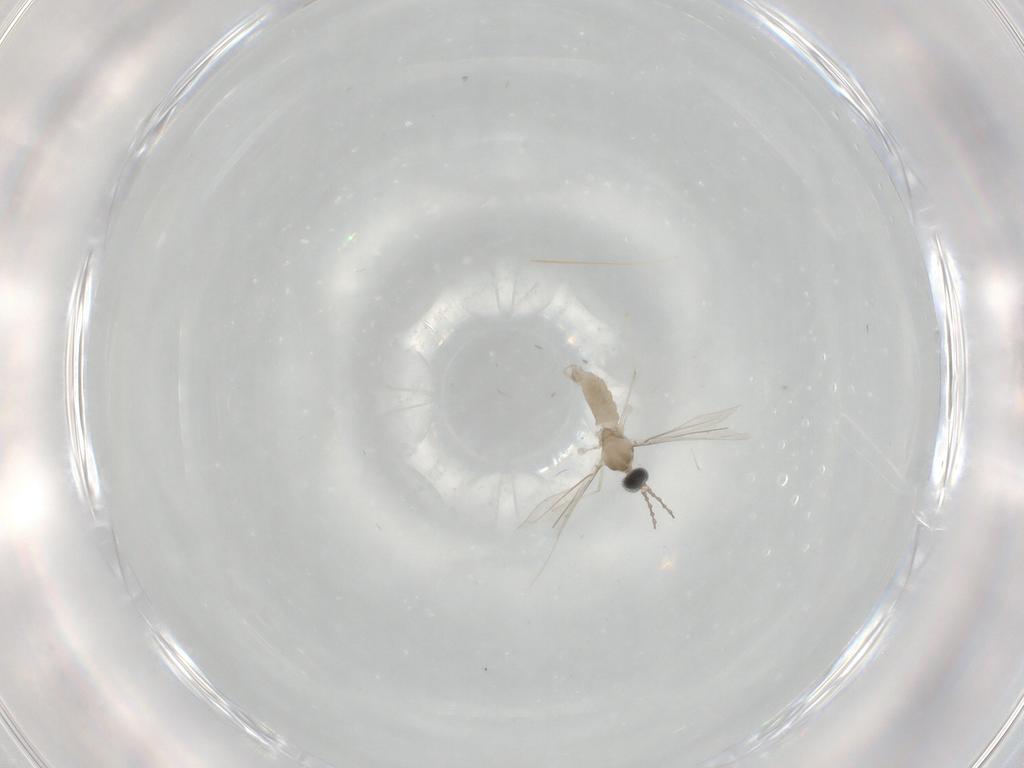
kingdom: Animalia
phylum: Arthropoda
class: Insecta
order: Diptera
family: Cecidomyiidae
